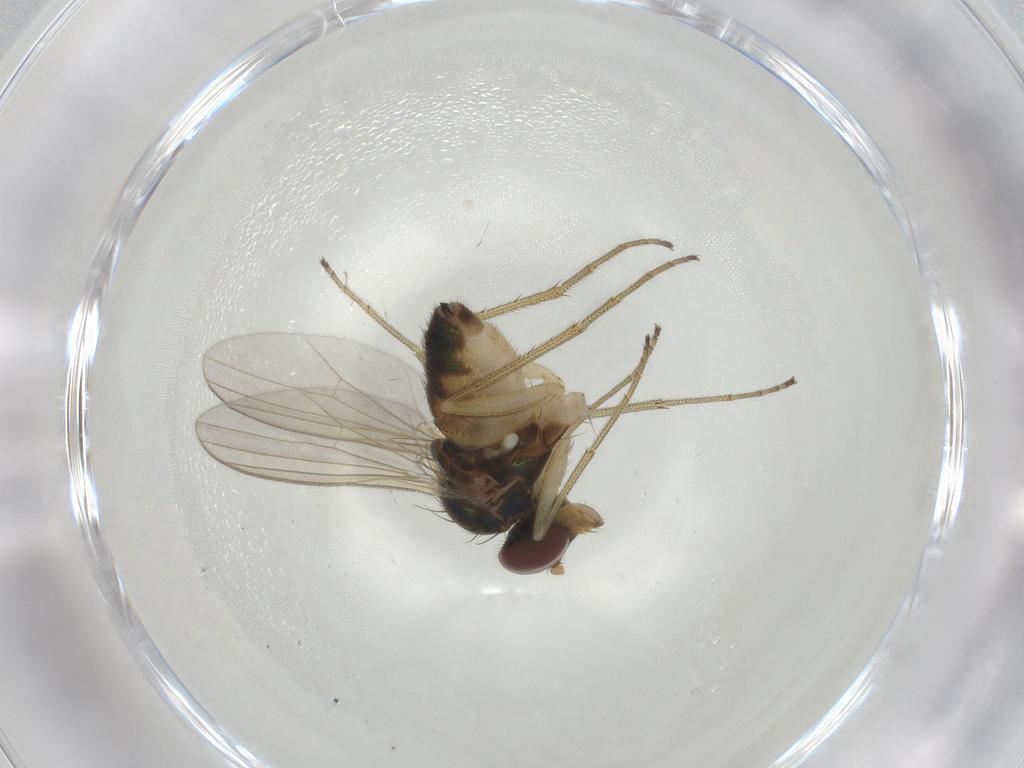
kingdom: Animalia
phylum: Arthropoda
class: Insecta
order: Diptera
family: Dolichopodidae
